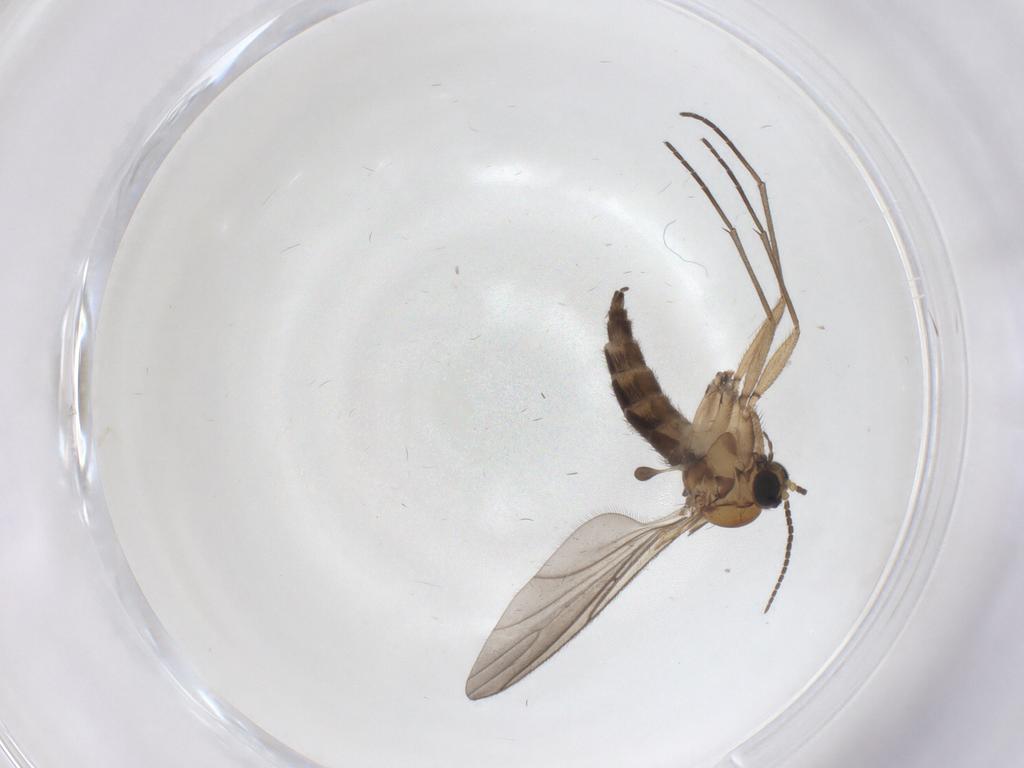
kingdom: Animalia
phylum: Arthropoda
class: Insecta
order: Diptera
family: Sciaridae
